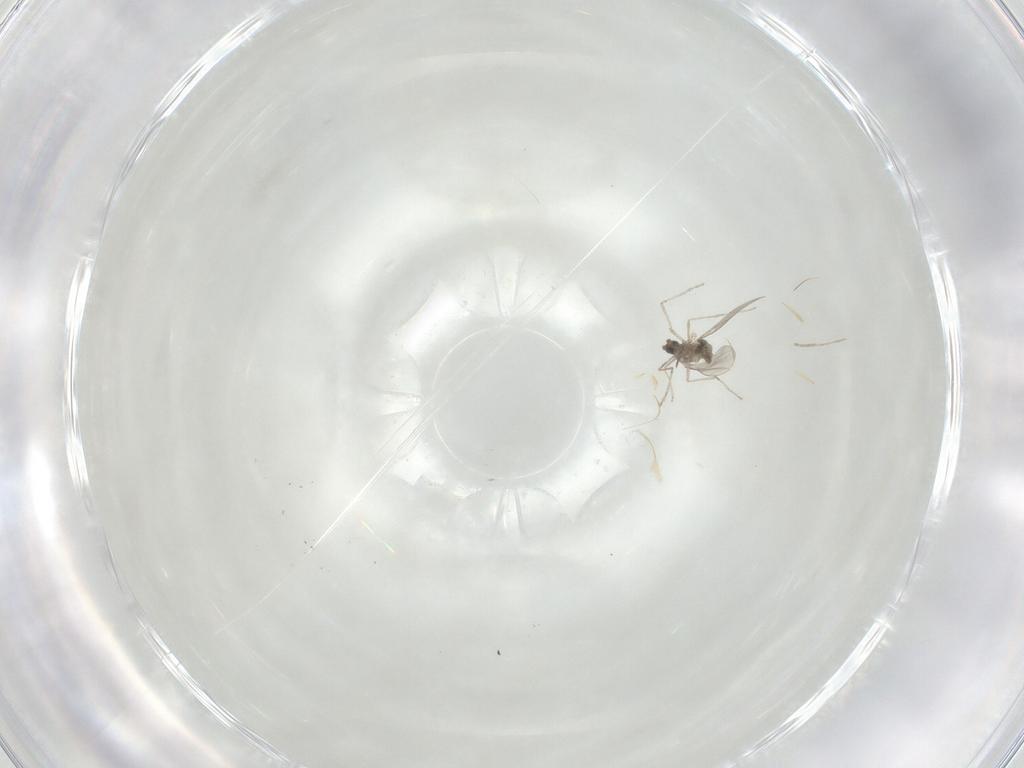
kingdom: Animalia
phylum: Arthropoda
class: Insecta
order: Diptera
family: Cecidomyiidae
